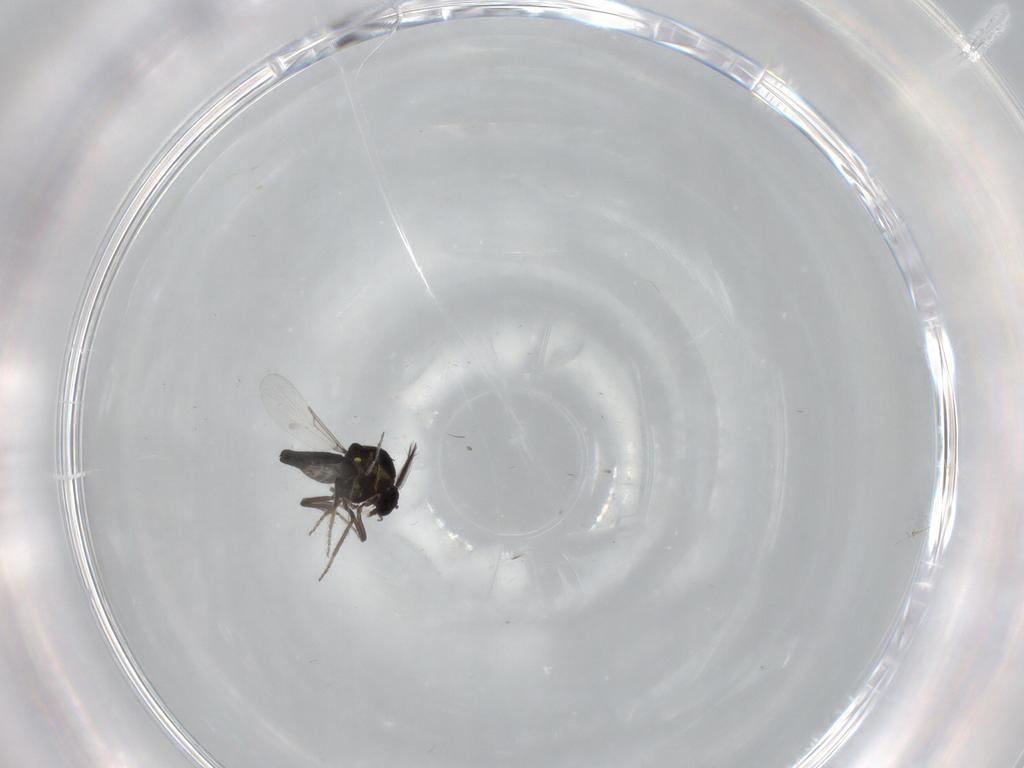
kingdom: Animalia
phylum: Arthropoda
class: Insecta
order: Diptera
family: Ceratopogonidae
